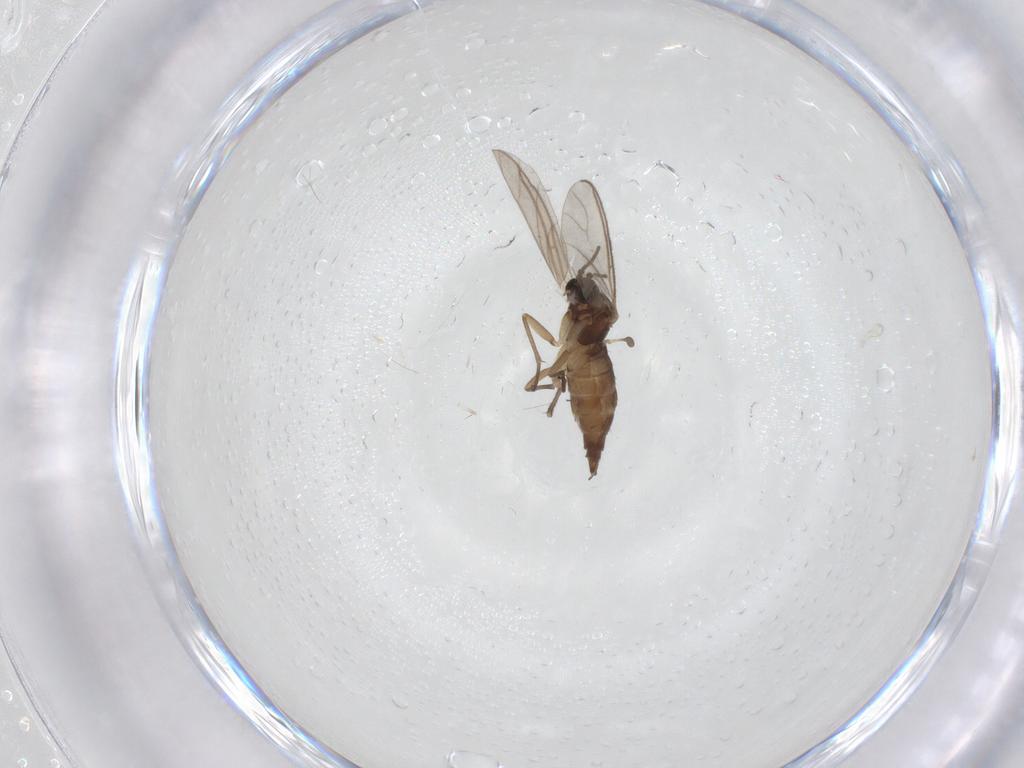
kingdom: Animalia
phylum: Arthropoda
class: Insecta
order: Diptera
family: Sciaridae
